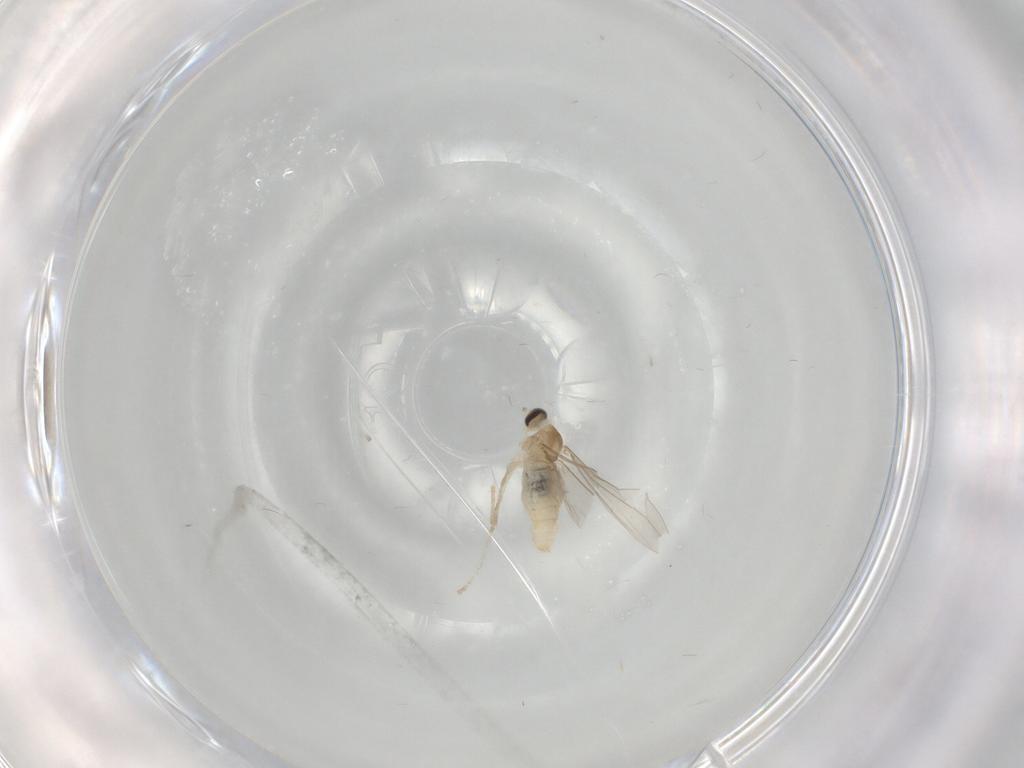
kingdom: Animalia
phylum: Arthropoda
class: Insecta
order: Diptera
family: Cecidomyiidae
